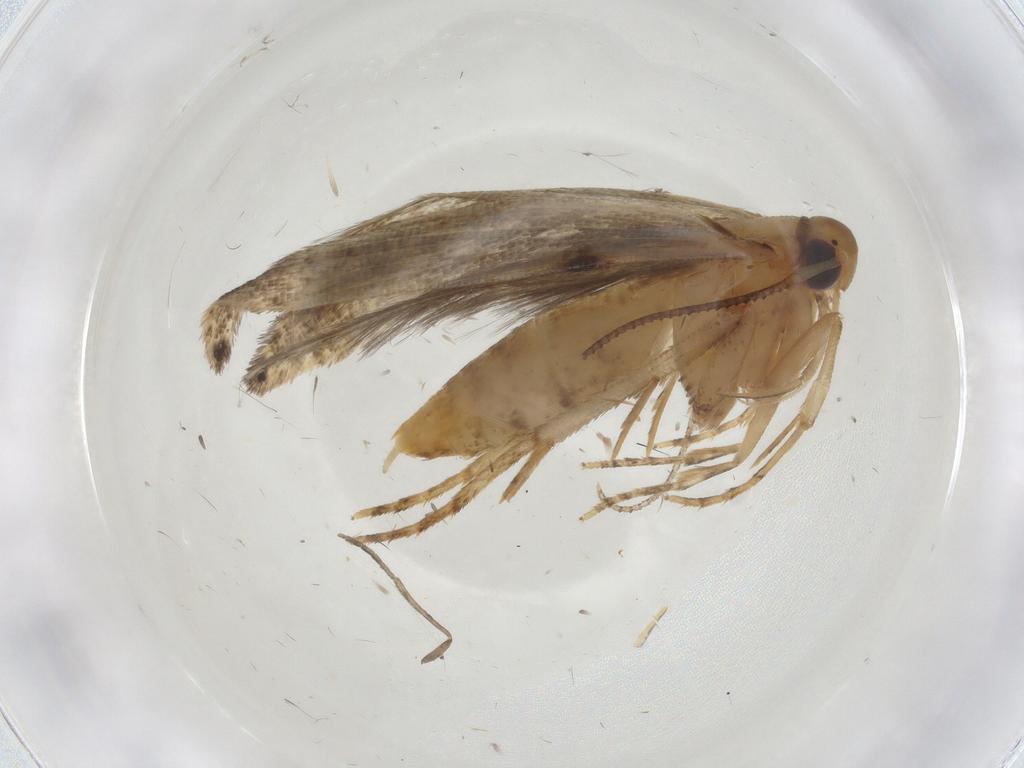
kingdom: Animalia
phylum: Arthropoda
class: Insecta
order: Lepidoptera
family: Cosmopterigidae
